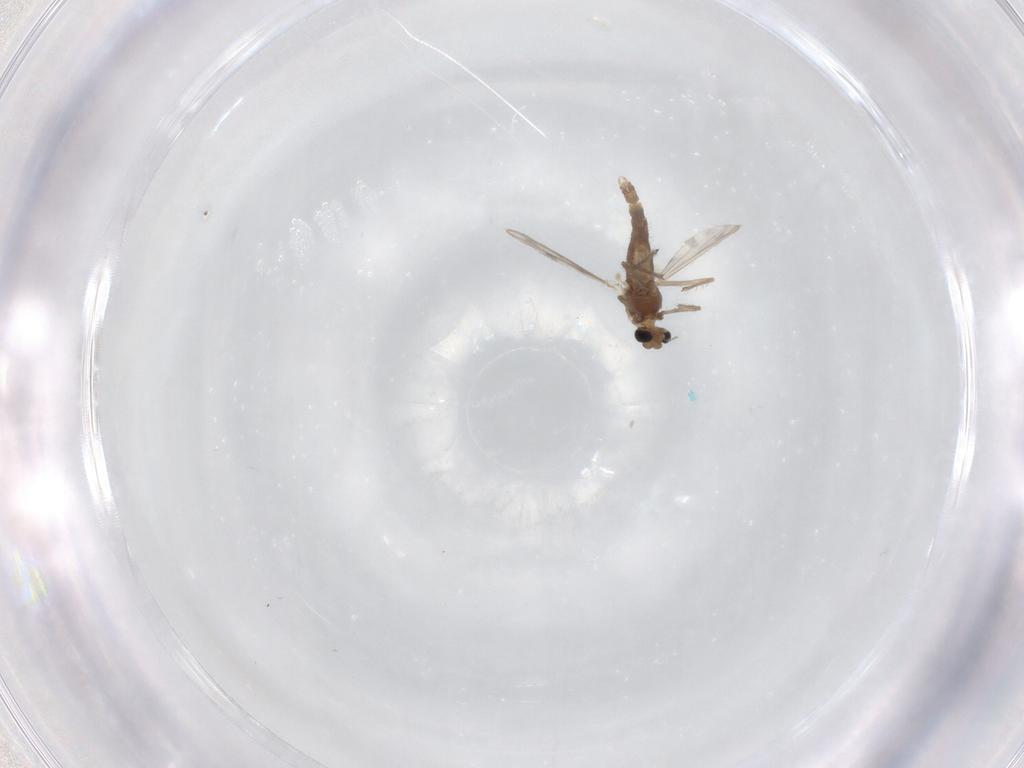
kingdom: Animalia
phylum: Arthropoda
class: Insecta
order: Diptera
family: Chironomidae
